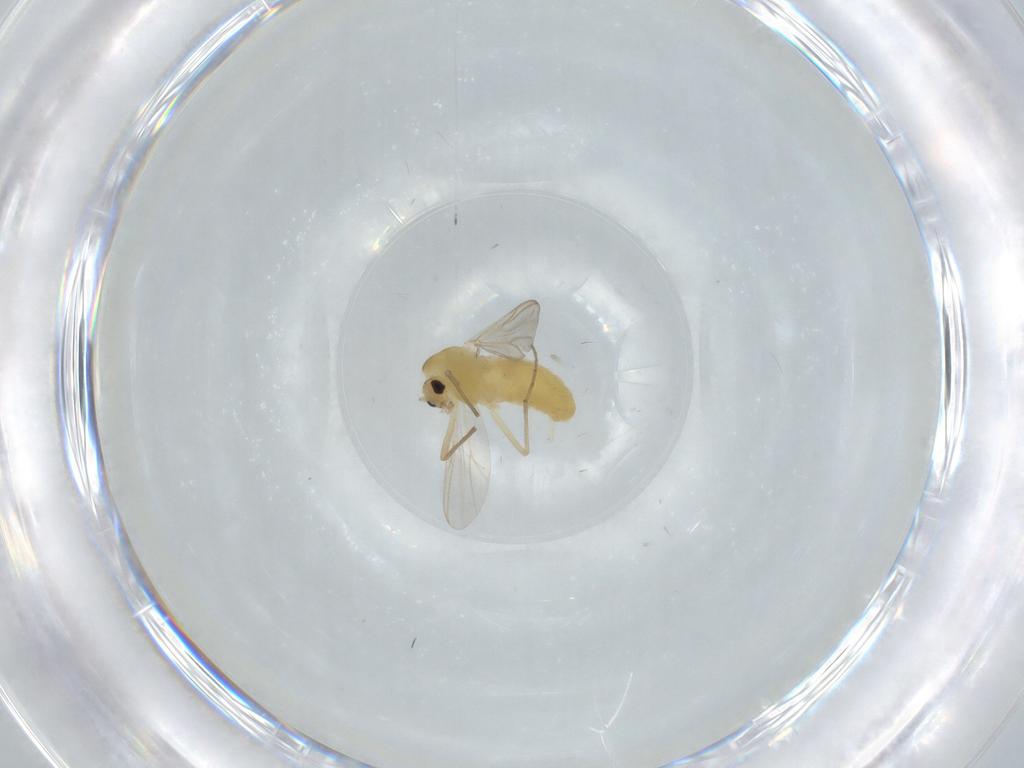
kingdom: Animalia
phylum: Arthropoda
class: Insecta
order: Diptera
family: Chironomidae
